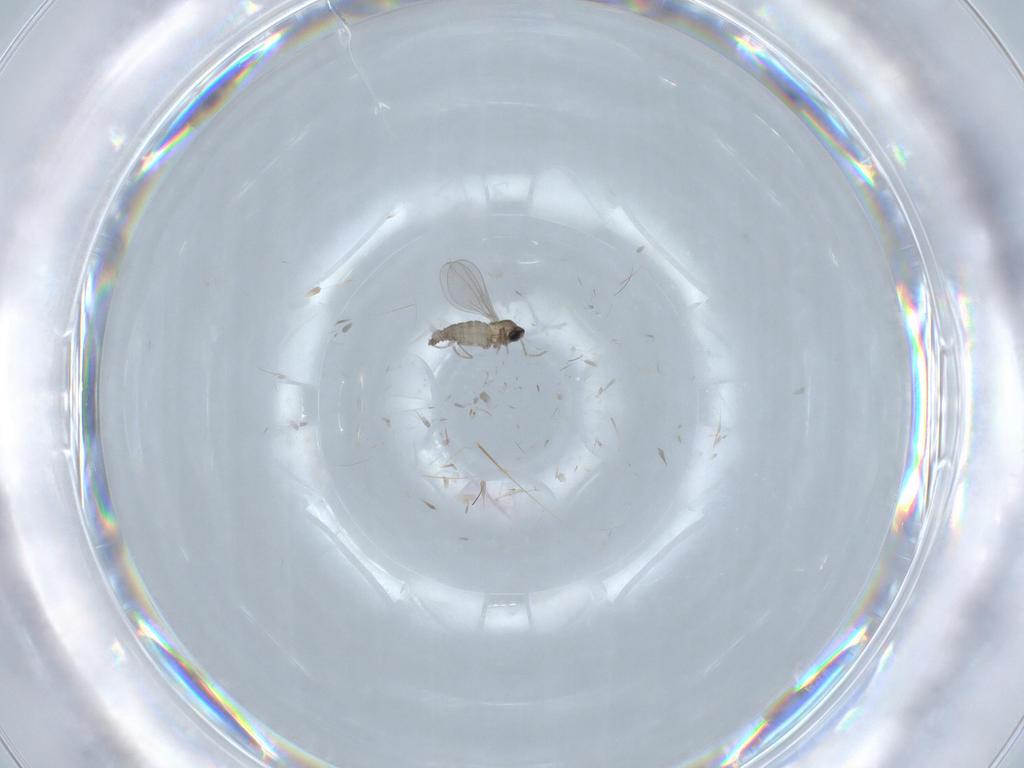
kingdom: Animalia
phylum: Arthropoda
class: Insecta
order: Diptera
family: Cecidomyiidae
